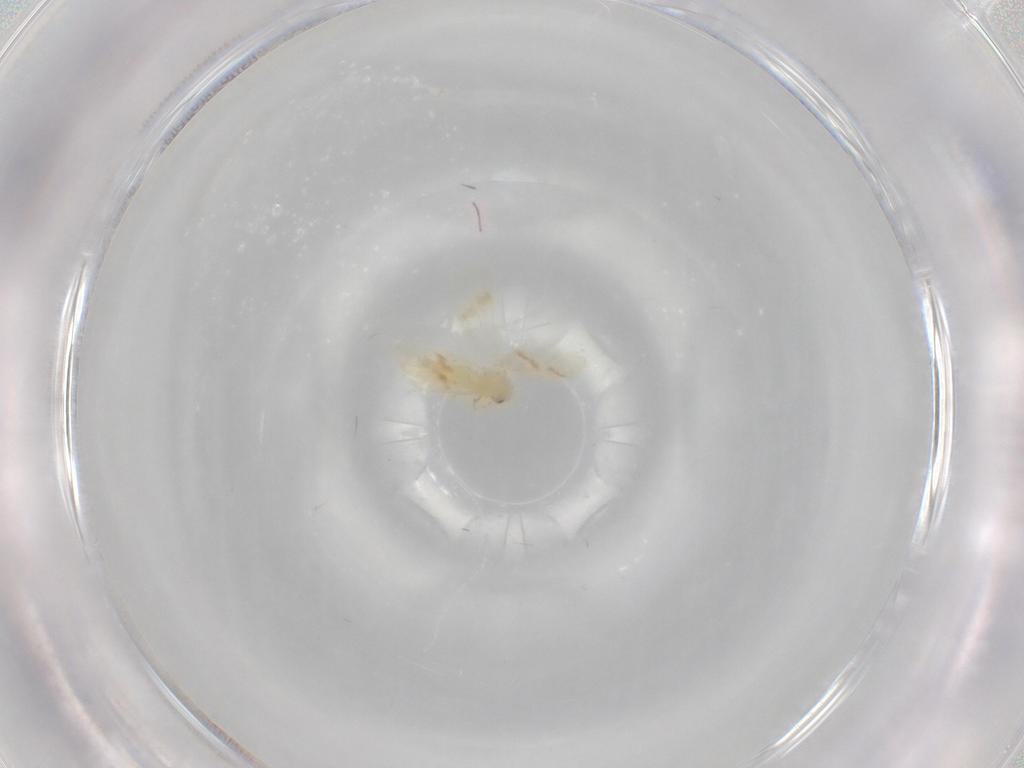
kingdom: Animalia
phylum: Arthropoda
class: Insecta
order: Hemiptera
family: Aleyrodidae
